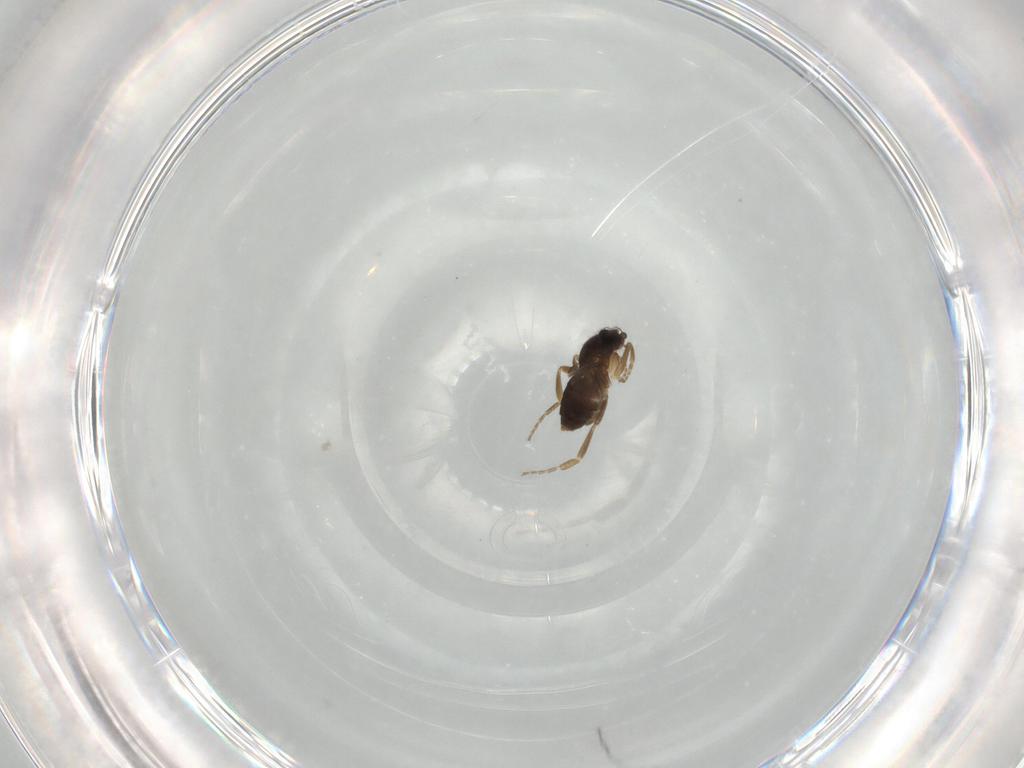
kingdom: Animalia
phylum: Arthropoda
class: Insecta
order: Diptera
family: Phoridae
